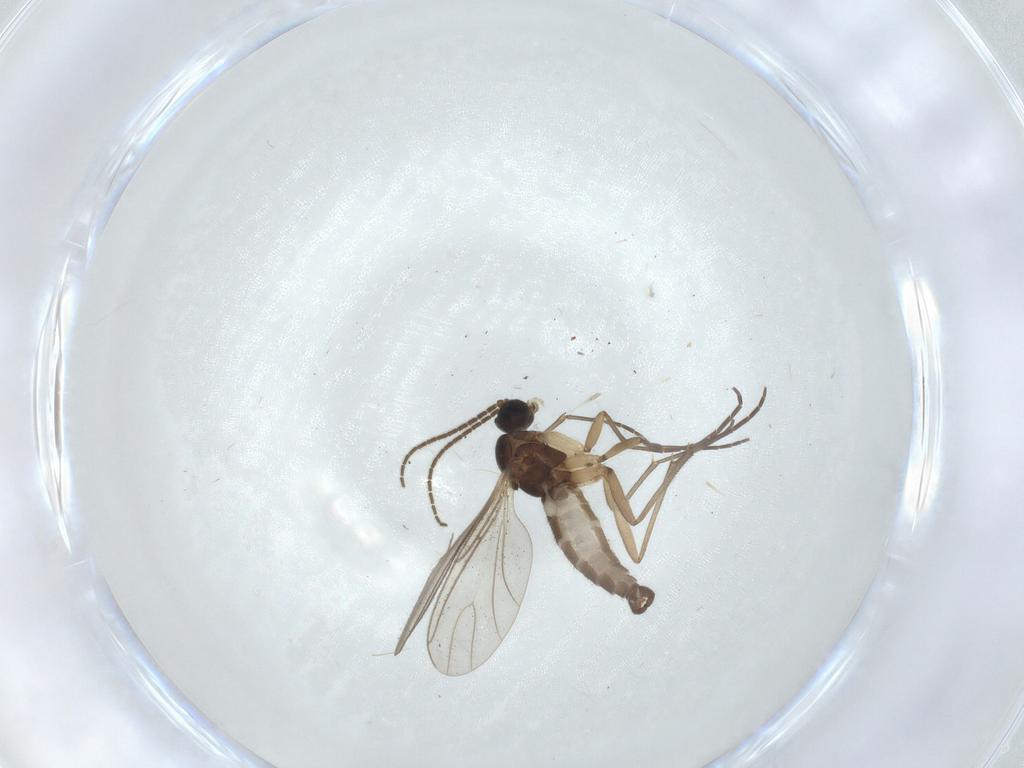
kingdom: Animalia
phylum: Arthropoda
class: Insecta
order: Diptera
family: Sciaridae
